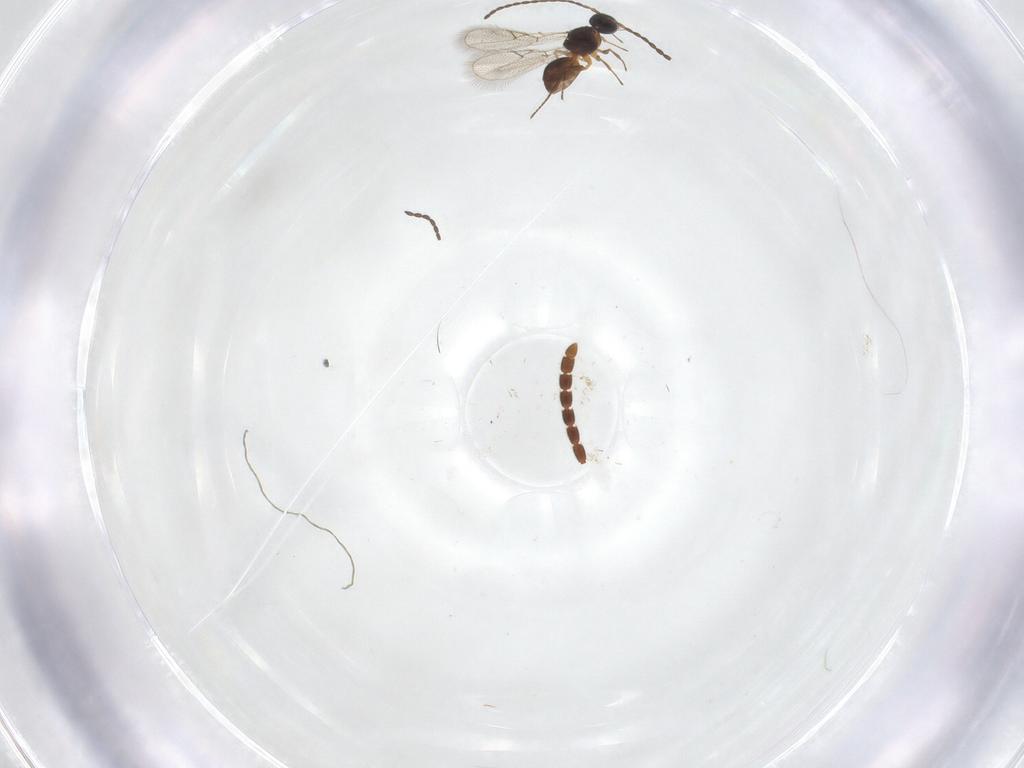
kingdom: Animalia
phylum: Arthropoda
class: Insecta
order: Hymenoptera
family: Figitidae
